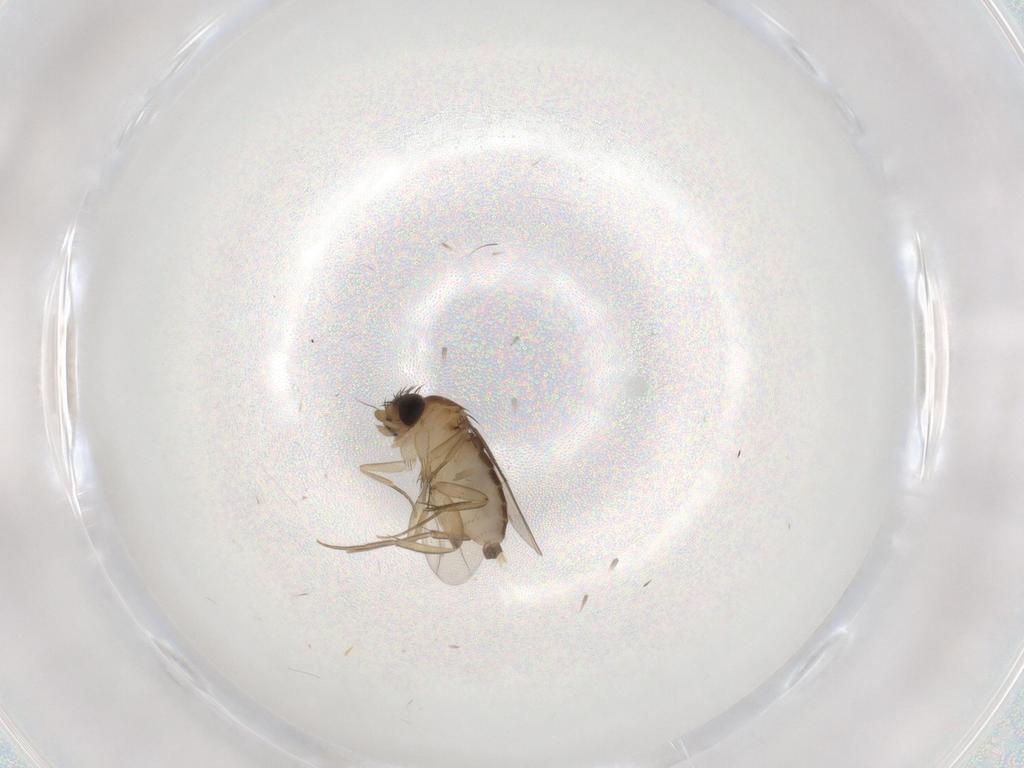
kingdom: Animalia
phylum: Arthropoda
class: Insecta
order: Diptera
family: Phoridae
